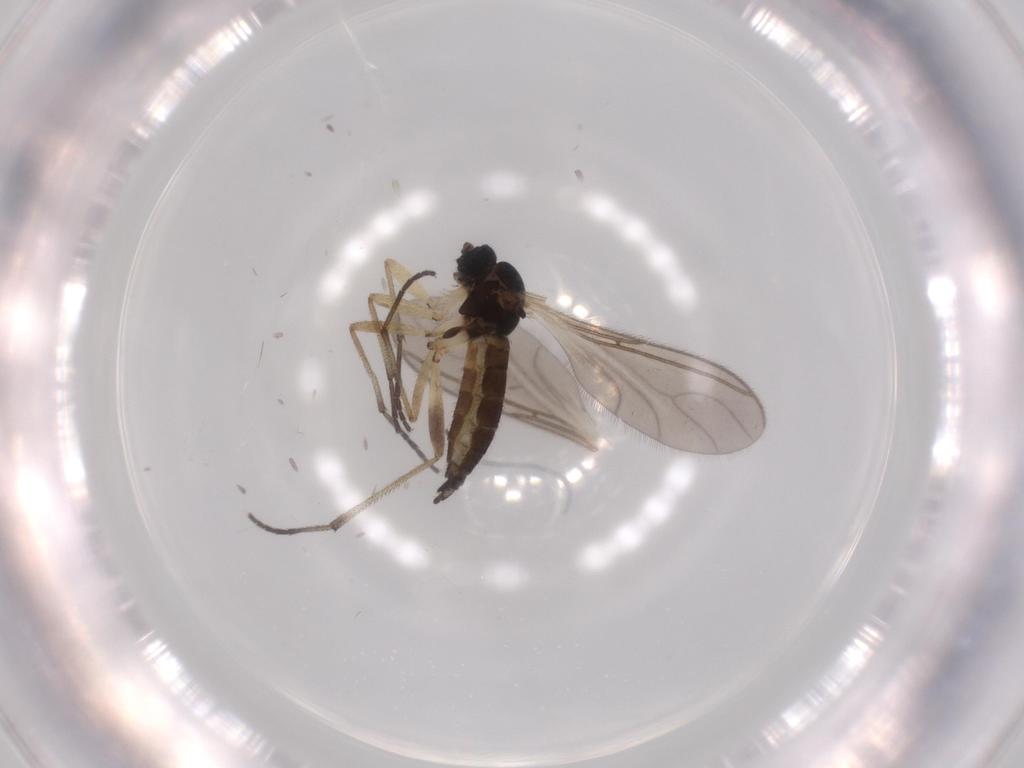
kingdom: Animalia
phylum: Arthropoda
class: Insecta
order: Diptera
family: Sciaridae
